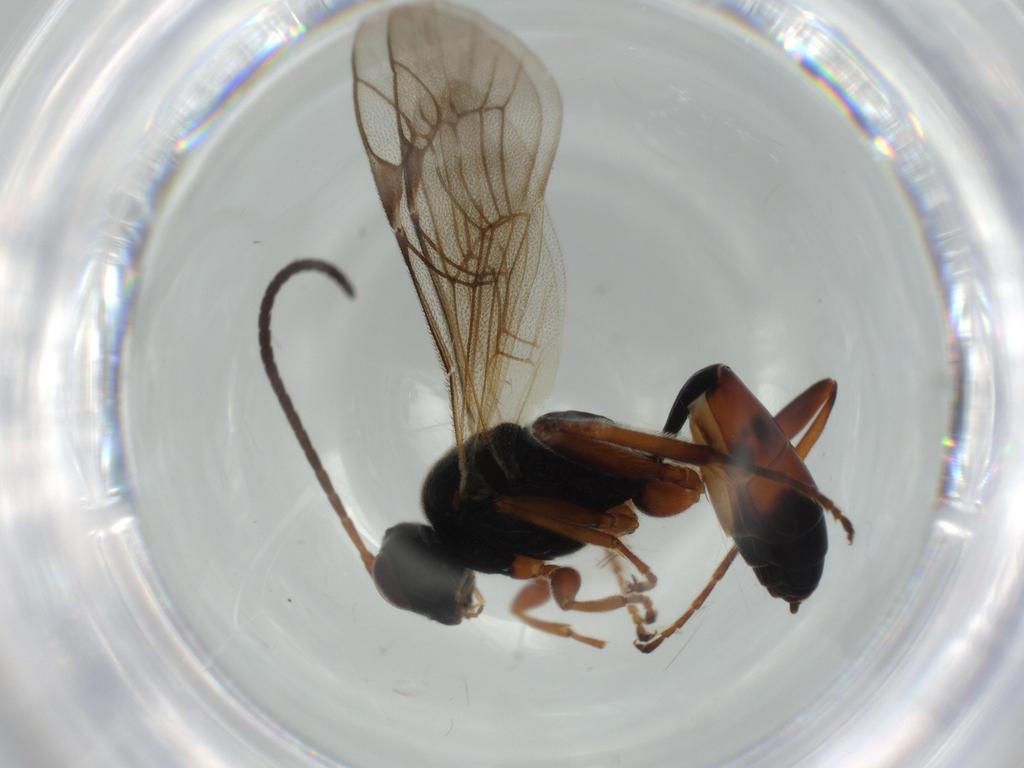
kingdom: Animalia
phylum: Arthropoda
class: Insecta
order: Hymenoptera
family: Ichneumonidae
